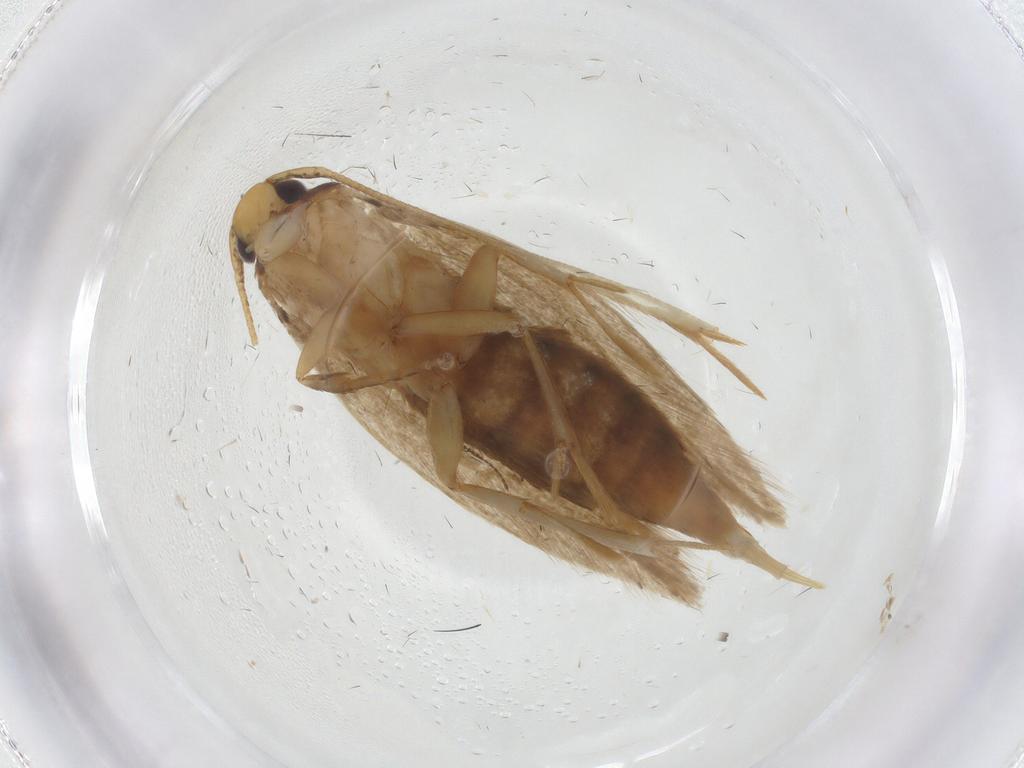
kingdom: Animalia
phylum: Arthropoda
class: Insecta
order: Lepidoptera
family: Tineidae
